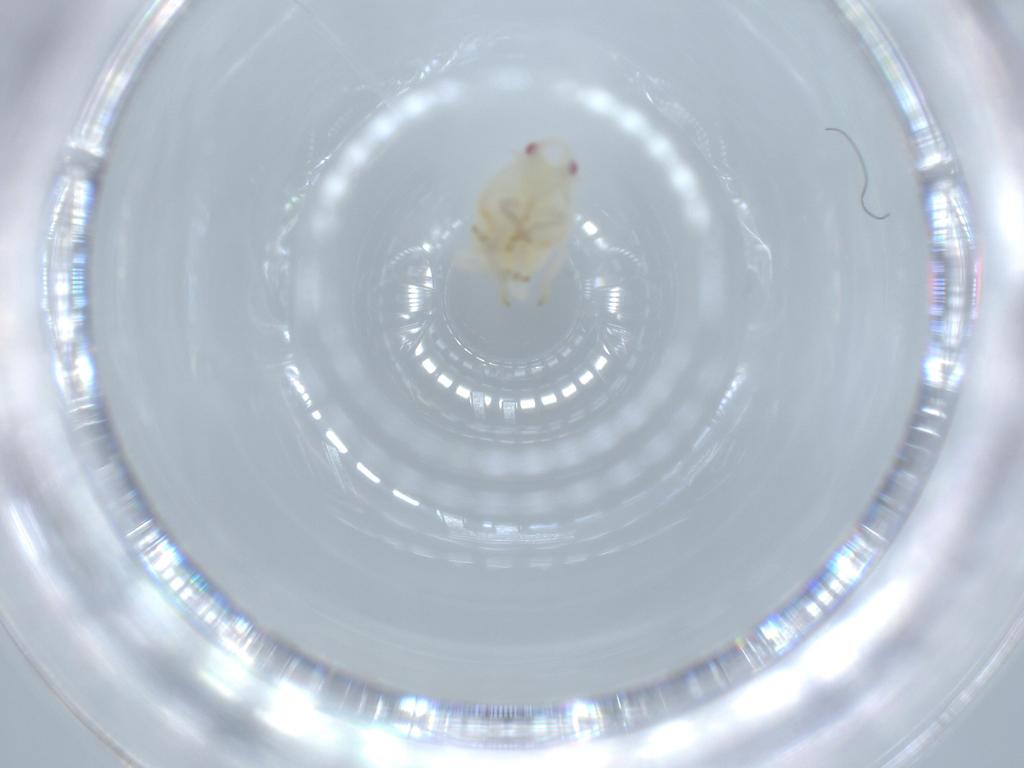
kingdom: Animalia
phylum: Arthropoda
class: Insecta
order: Hemiptera
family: Flatidae
